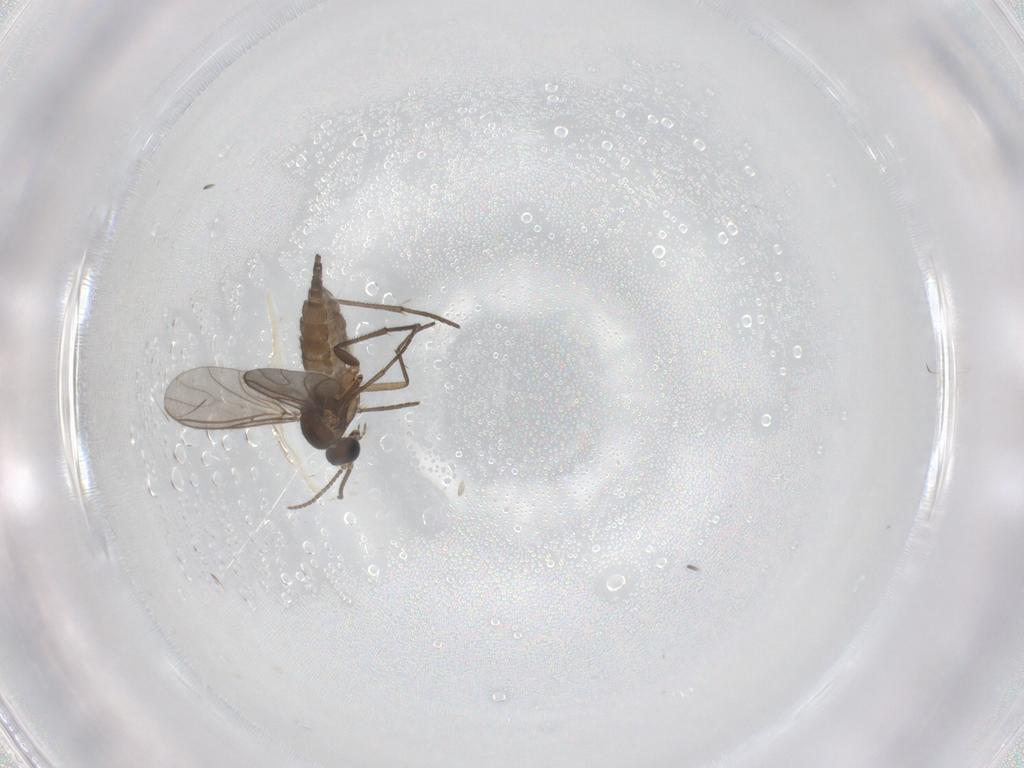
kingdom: Animalia
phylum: Arthropoda
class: Insecta
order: Diptera
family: Sciaridae
